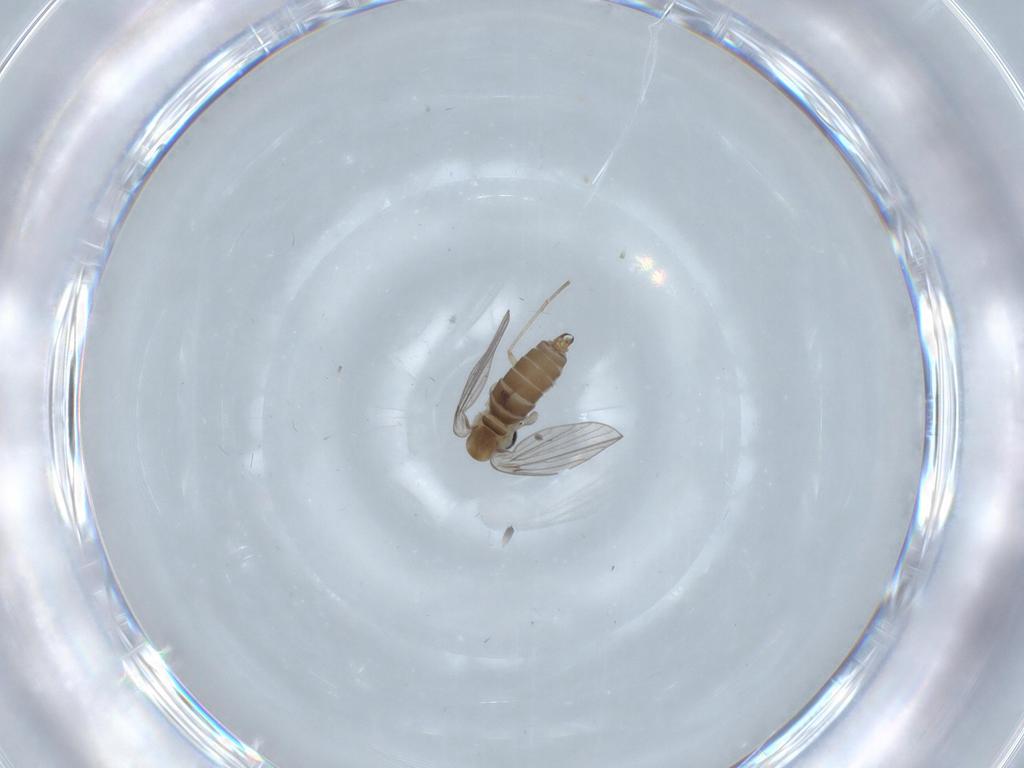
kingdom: Animalia
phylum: Arthropoda
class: Insecta
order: Diptera
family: Psychodidae
